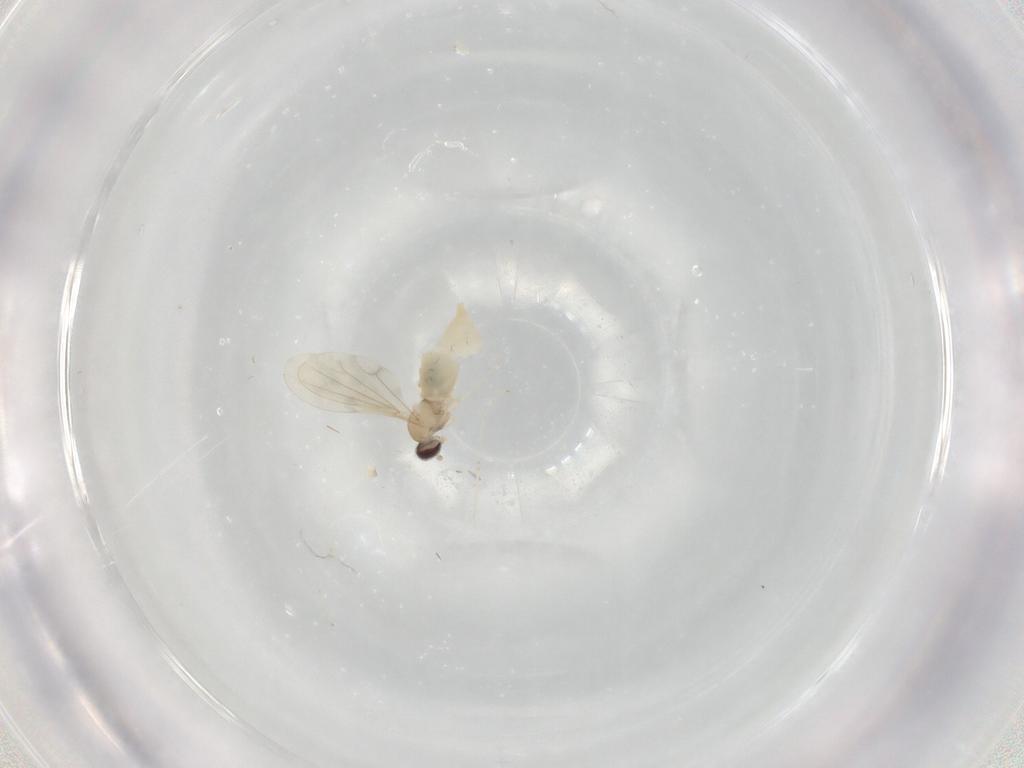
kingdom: Animalia
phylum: Arthropoda
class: Insecta
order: Diptera
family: Cecidomyiidae
